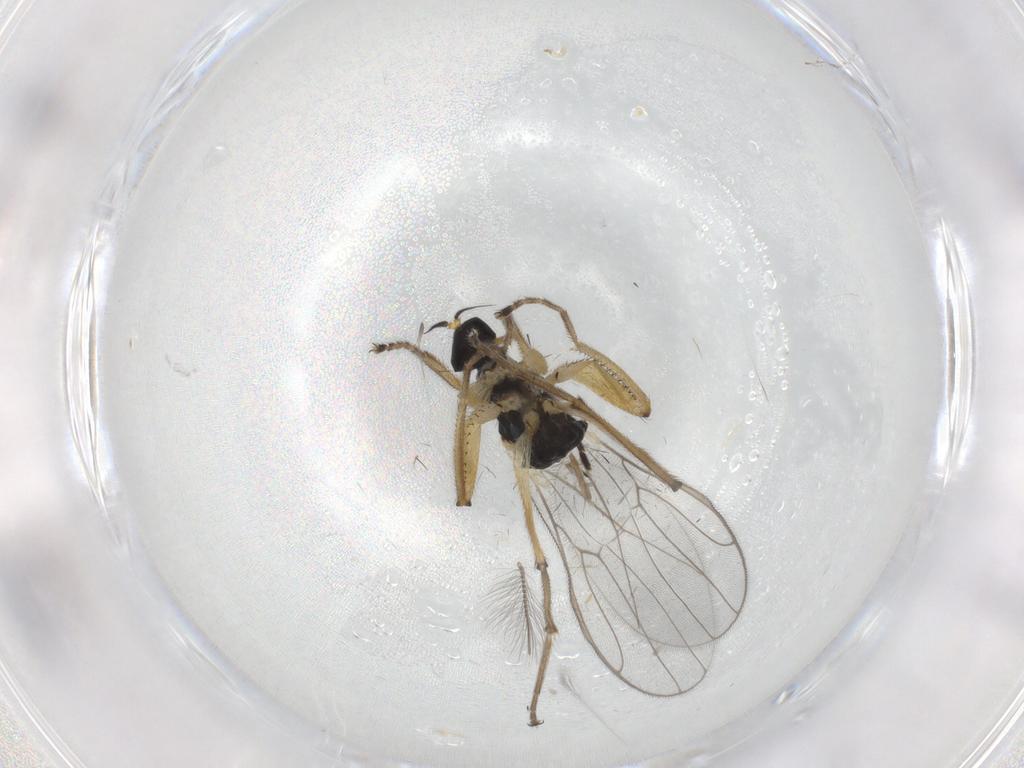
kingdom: Animalia
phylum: Arthropoda
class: Insecta
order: Diptera
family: Hybotidae
